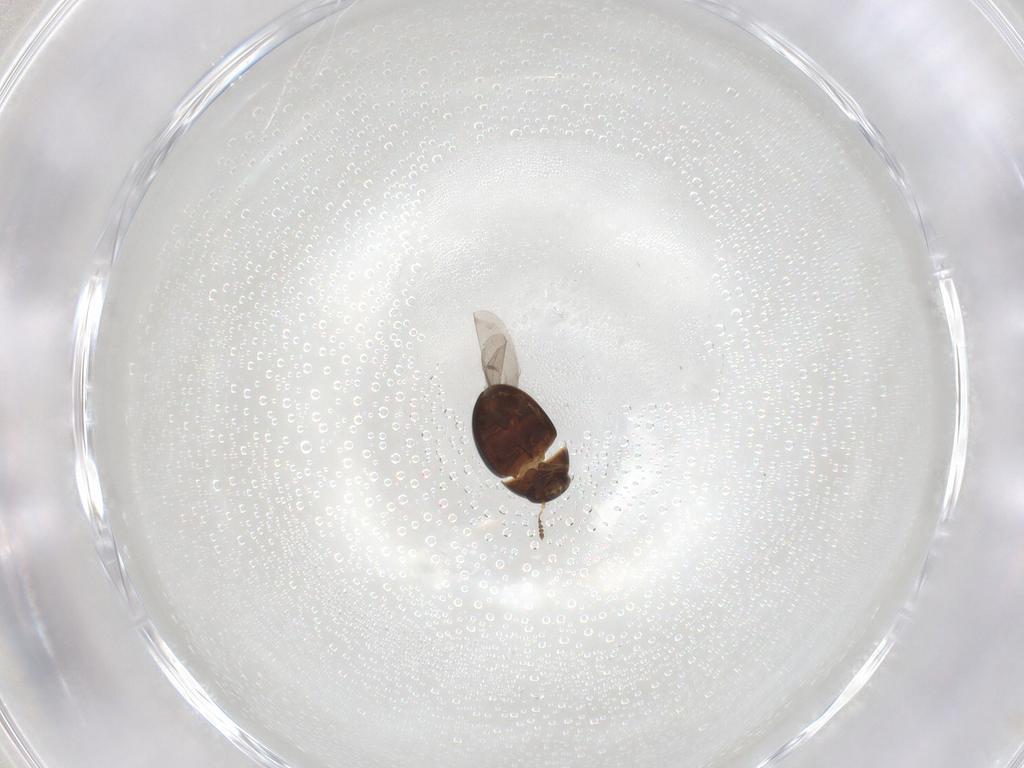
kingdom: Animalia
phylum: Arthropoda
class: Insecta
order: Coleoptera
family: Leiodidae
